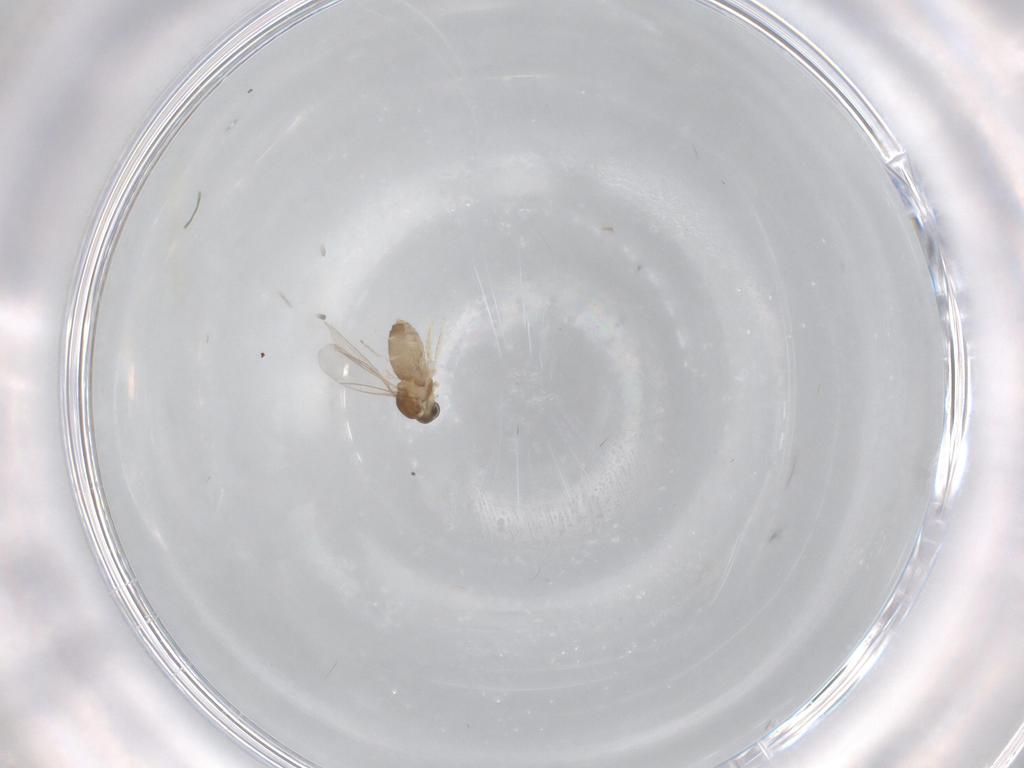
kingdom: Animalia
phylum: Arthropoda
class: Insecta
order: Diptera
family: Cecidomyiidae
